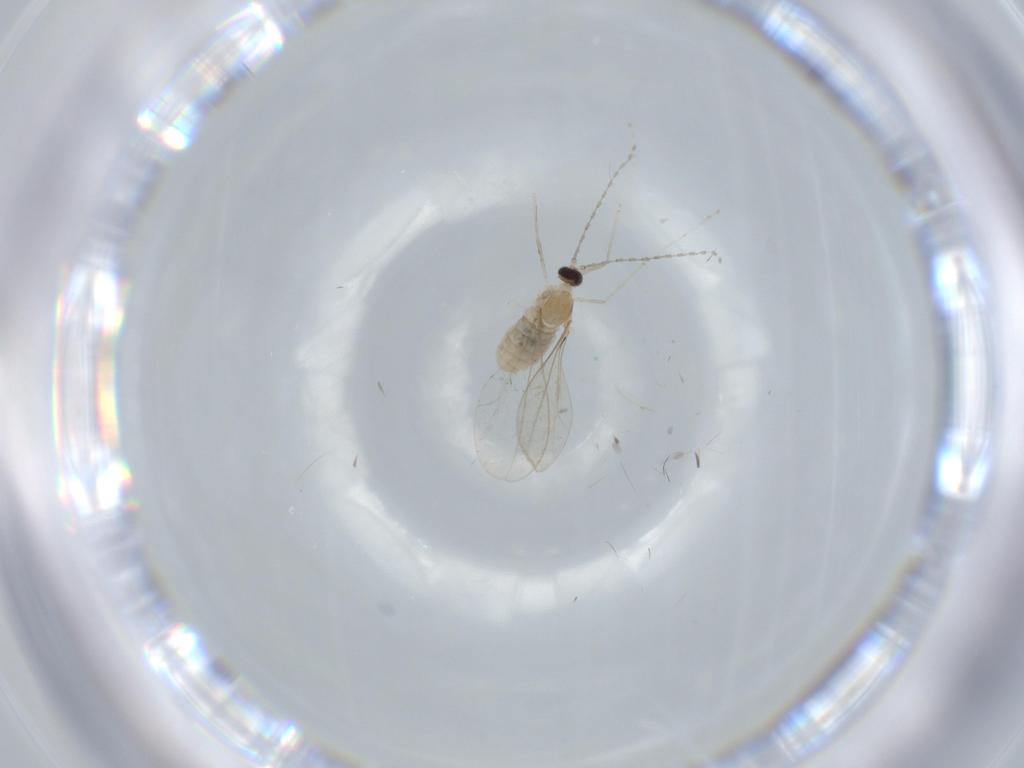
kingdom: Animalia
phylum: Arthropoda
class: Insecta
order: Diptera
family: Cecidomyiidae
